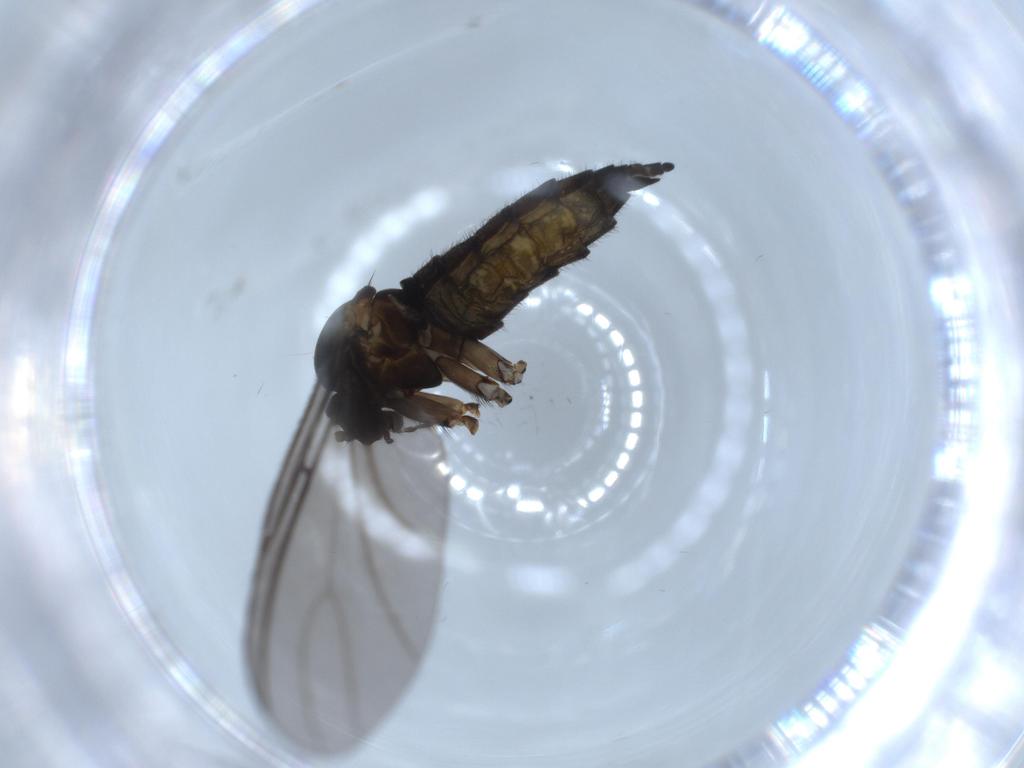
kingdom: Animalia
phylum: Arthropoda
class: Insecta
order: Diptera
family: Sciaridae
